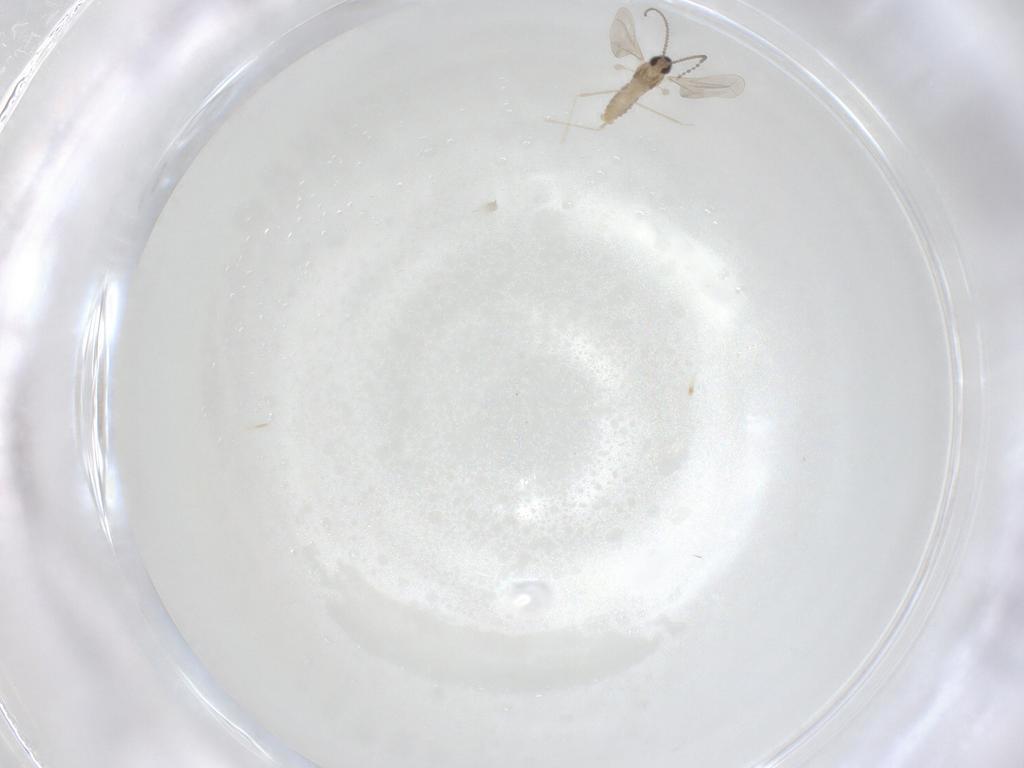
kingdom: Animalia
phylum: Arthropoda
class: Insecta
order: Diptera
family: Cecidomyiidae
